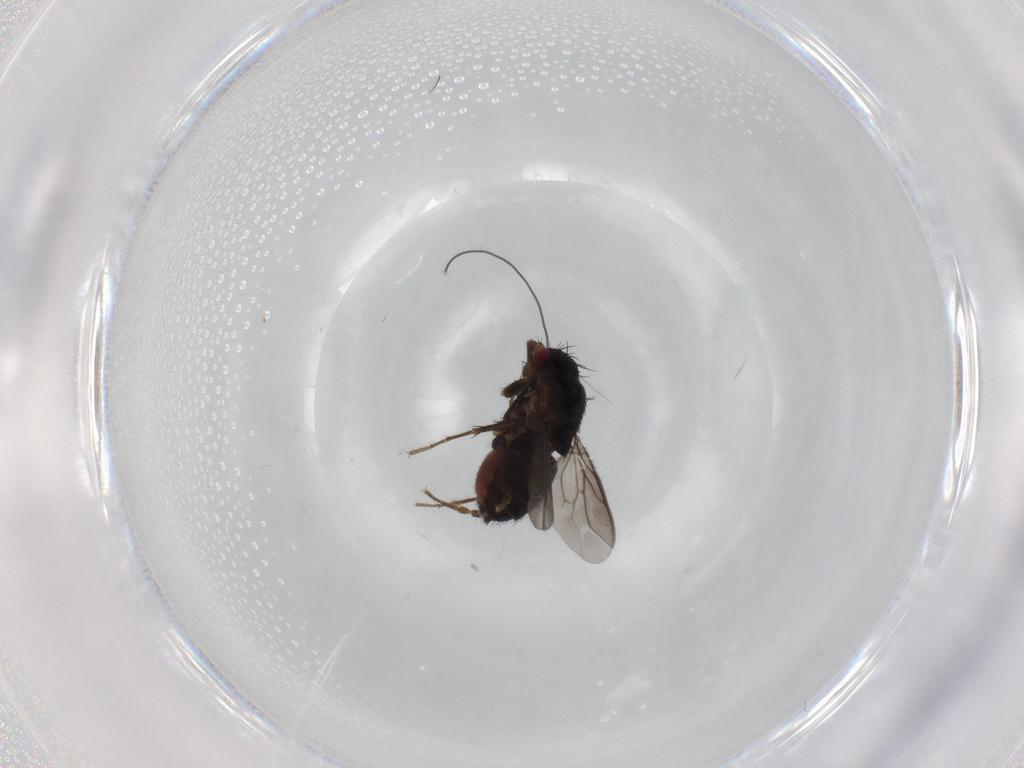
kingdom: Animalia
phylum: Arthropoda
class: Insecta
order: Diptera
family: Sphaeroceridae
